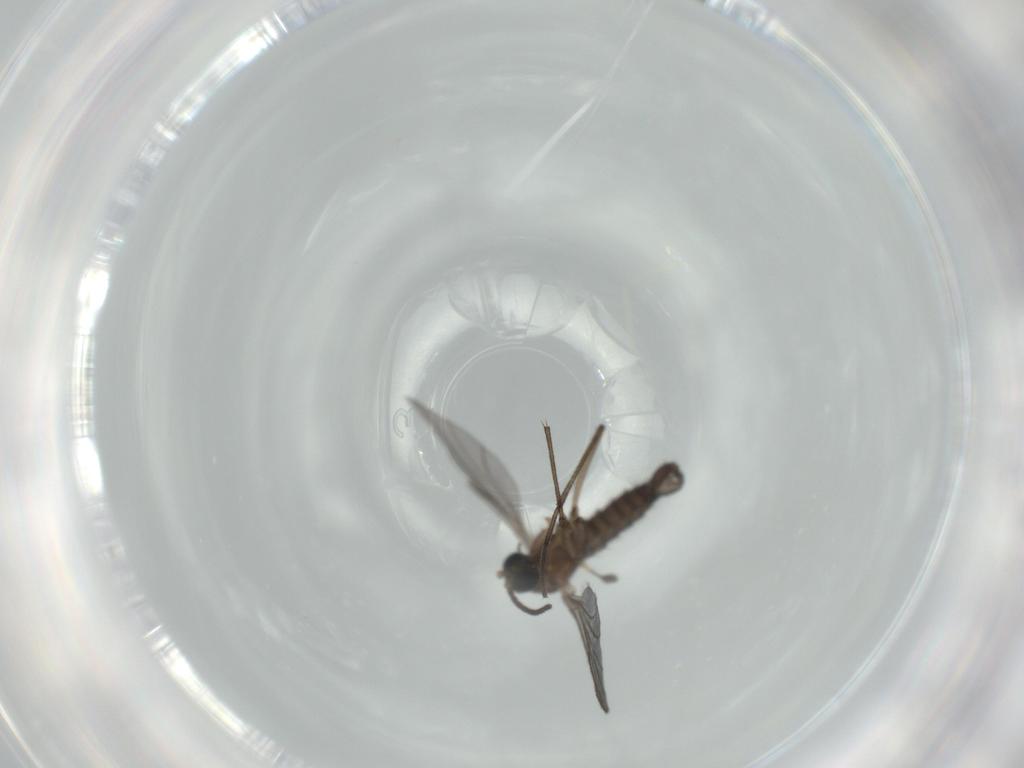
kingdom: Animalia
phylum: Arthropoda
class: Insecta
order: Diptera
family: Sciaridae
